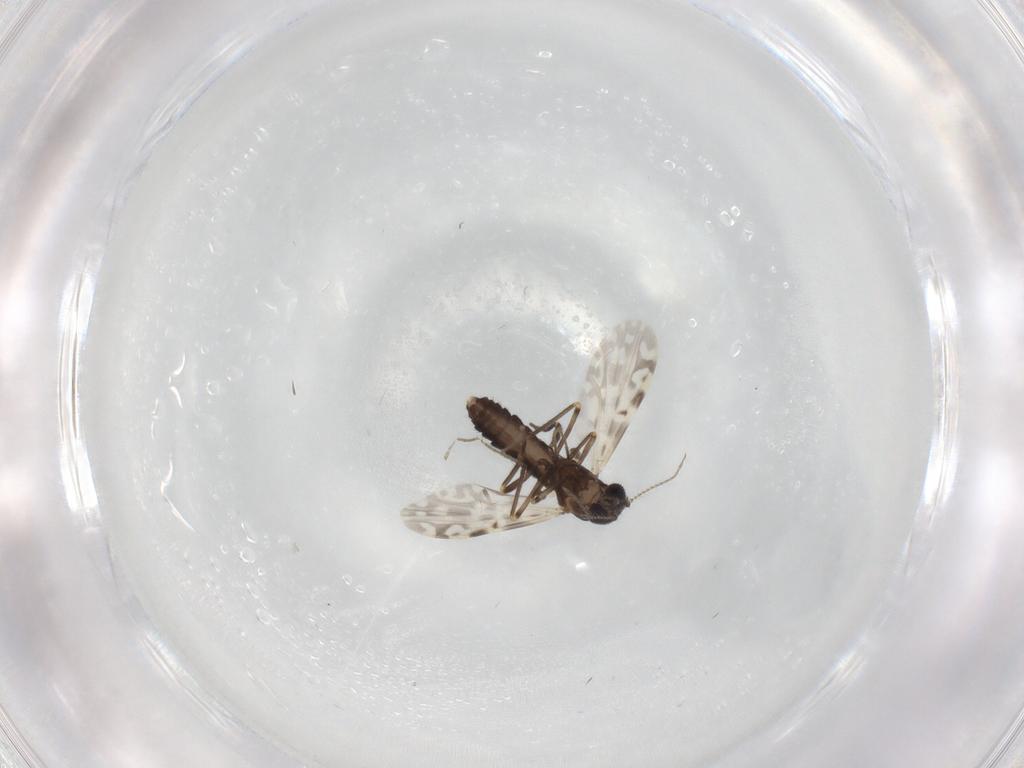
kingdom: Animalia
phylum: Arthropoda
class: Insecta
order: Diptera
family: Ceratopogonidae
